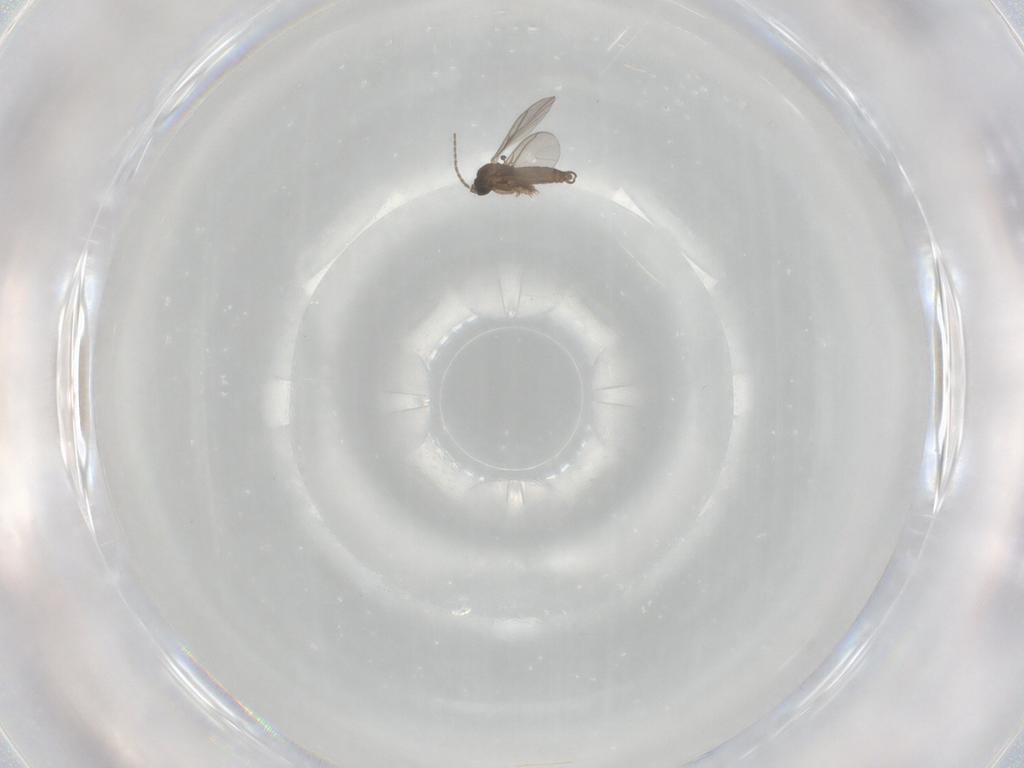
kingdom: Animalia
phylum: Arthropoda
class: Insecta
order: Diptera
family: Sciaridae
